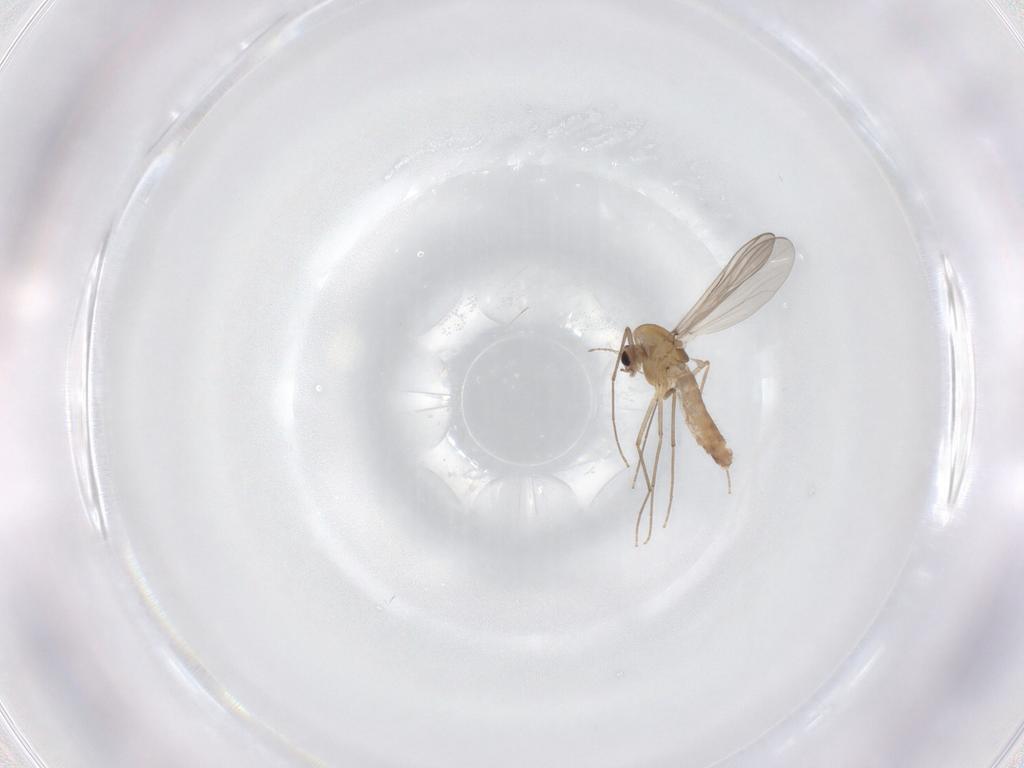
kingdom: Animalia
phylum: Arthropoda
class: Insecta
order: Diptera
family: Chironomidae
